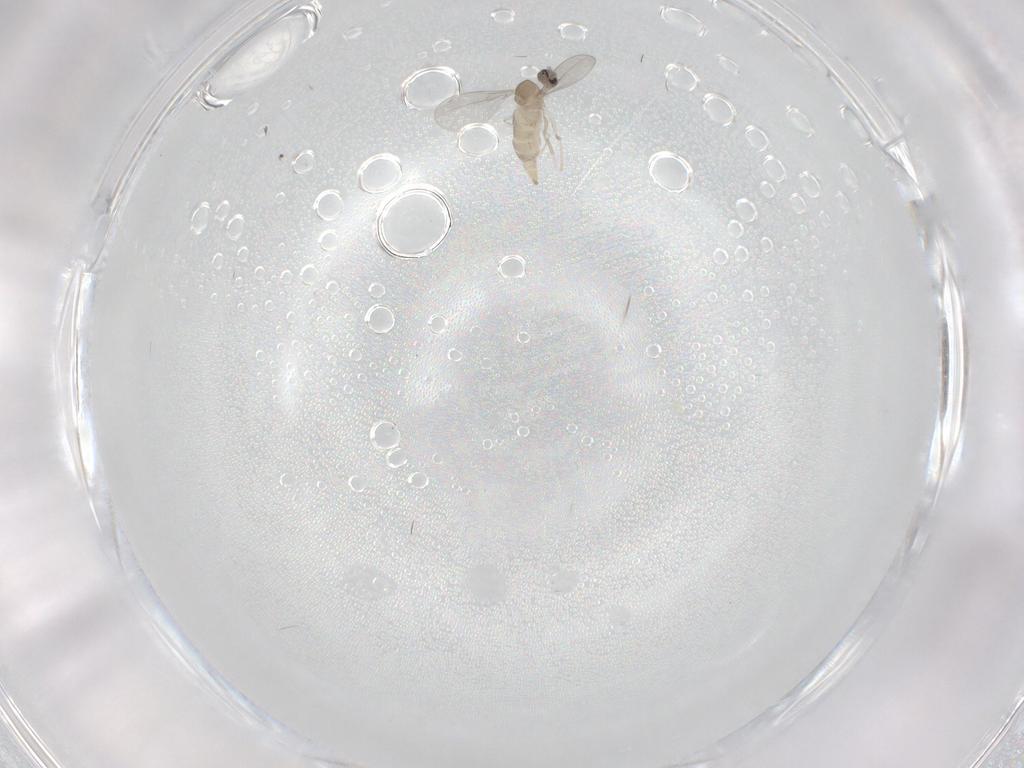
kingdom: Animalia
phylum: Arthropoda
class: Insecta
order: Diptera
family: Cecidomyiidae
